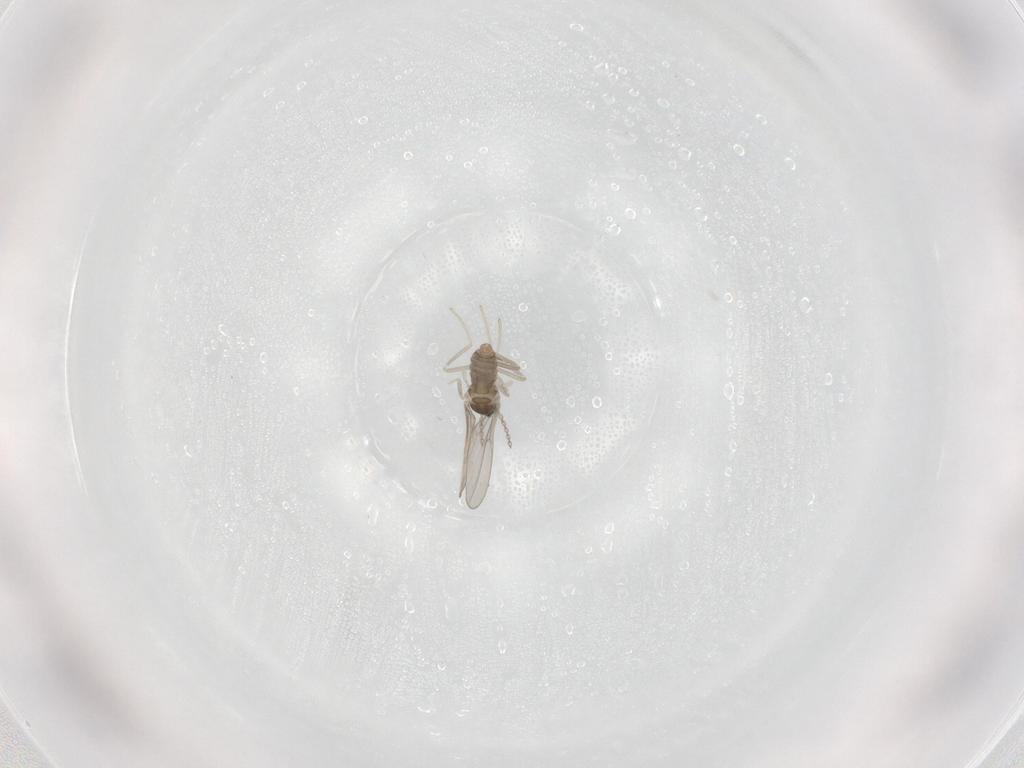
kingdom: Animalia
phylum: Arthropoda
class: Insecta
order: Diptera
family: Cecidomyiidae
